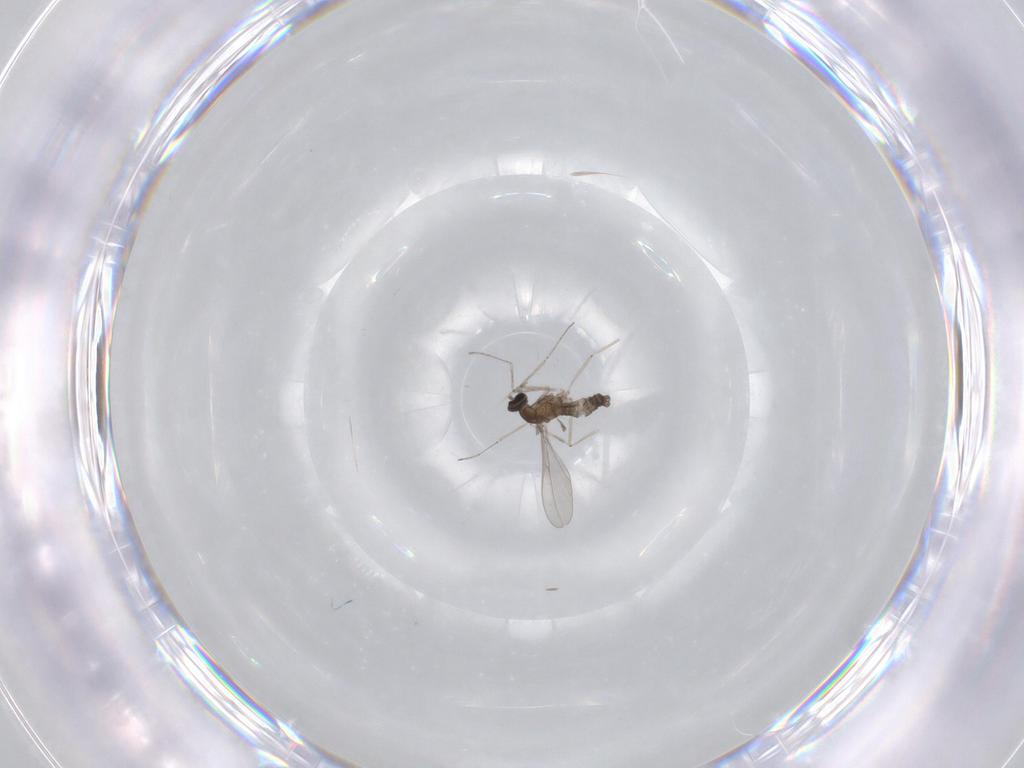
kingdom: Animalia
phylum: Arthropoda
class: Insecta
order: Diptera
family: Cecidomyiidae
